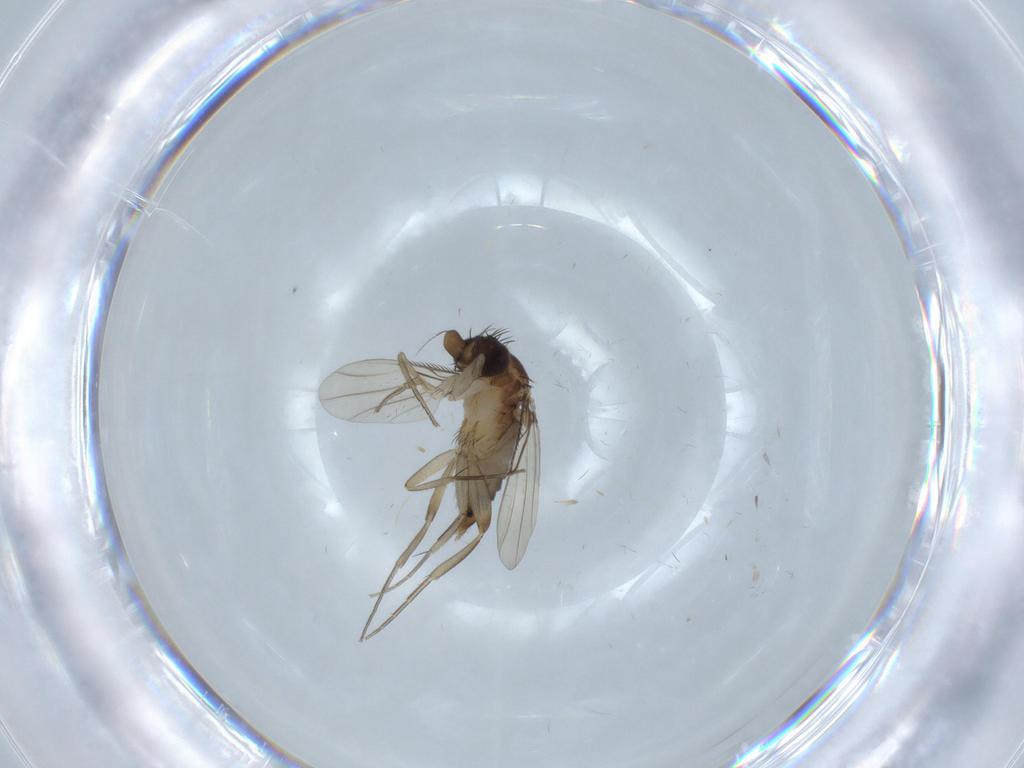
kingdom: Animalia
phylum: Arthropoda
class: Insecta
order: Diptera
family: Phoridae
